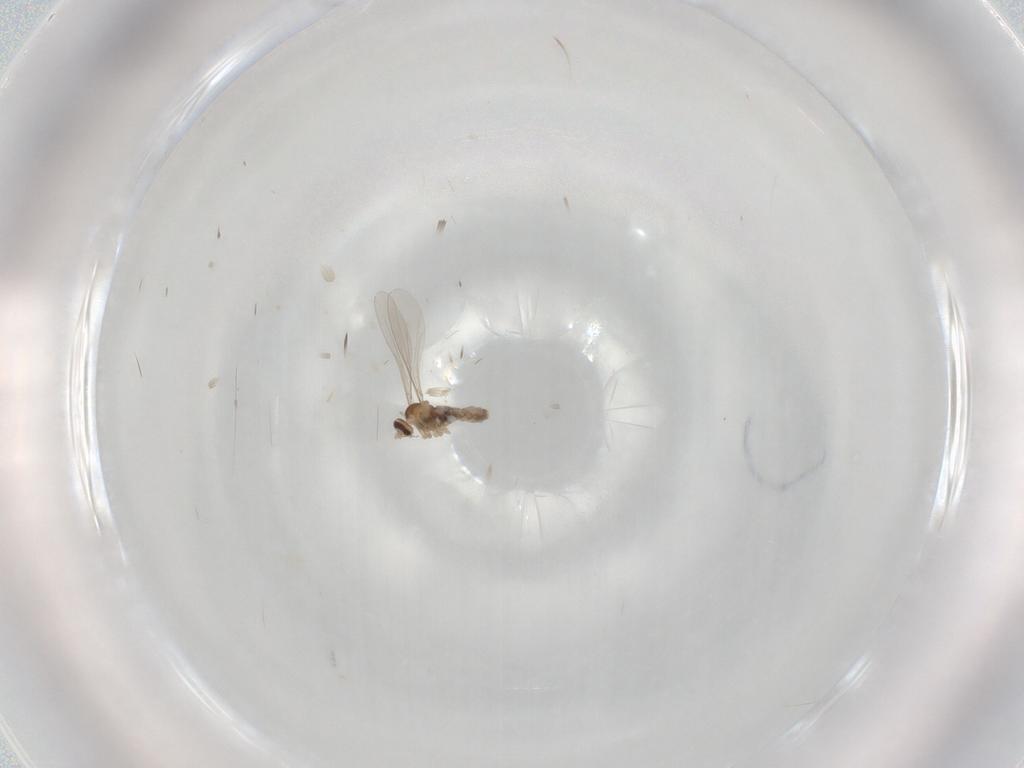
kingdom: Animalia
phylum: Arthropoda
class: Insecta
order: Diptera
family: Cecidomyiidae
